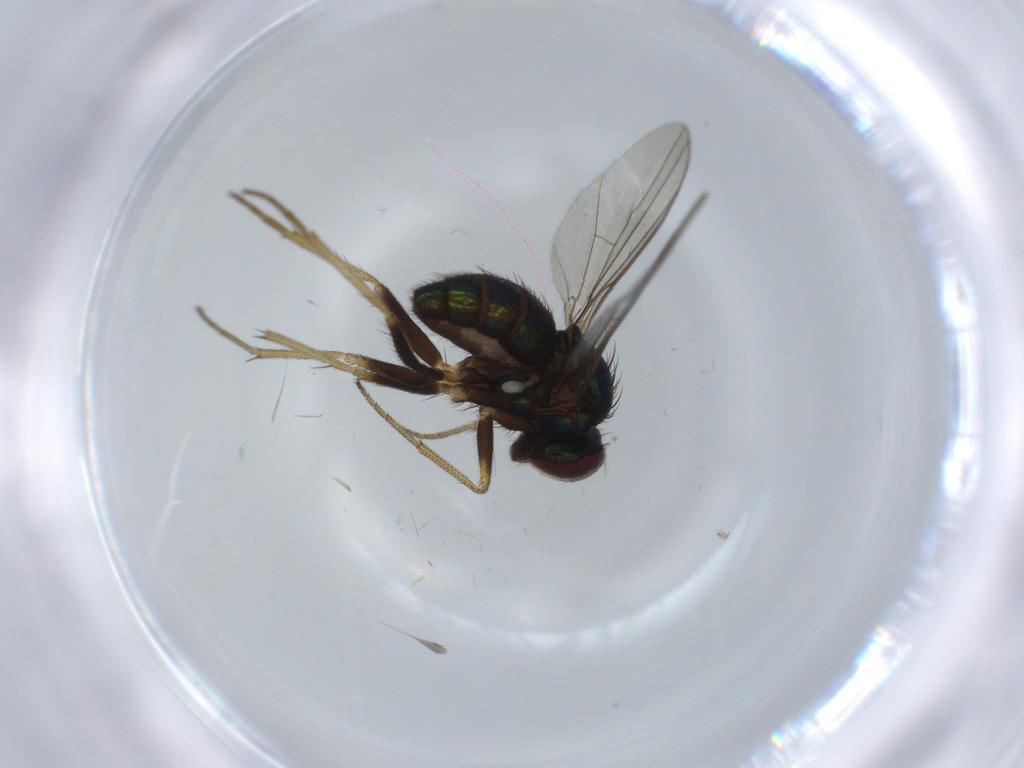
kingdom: Animalia
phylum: Arthropoda
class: Insecta
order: Diptera
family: Dolichopodidae
